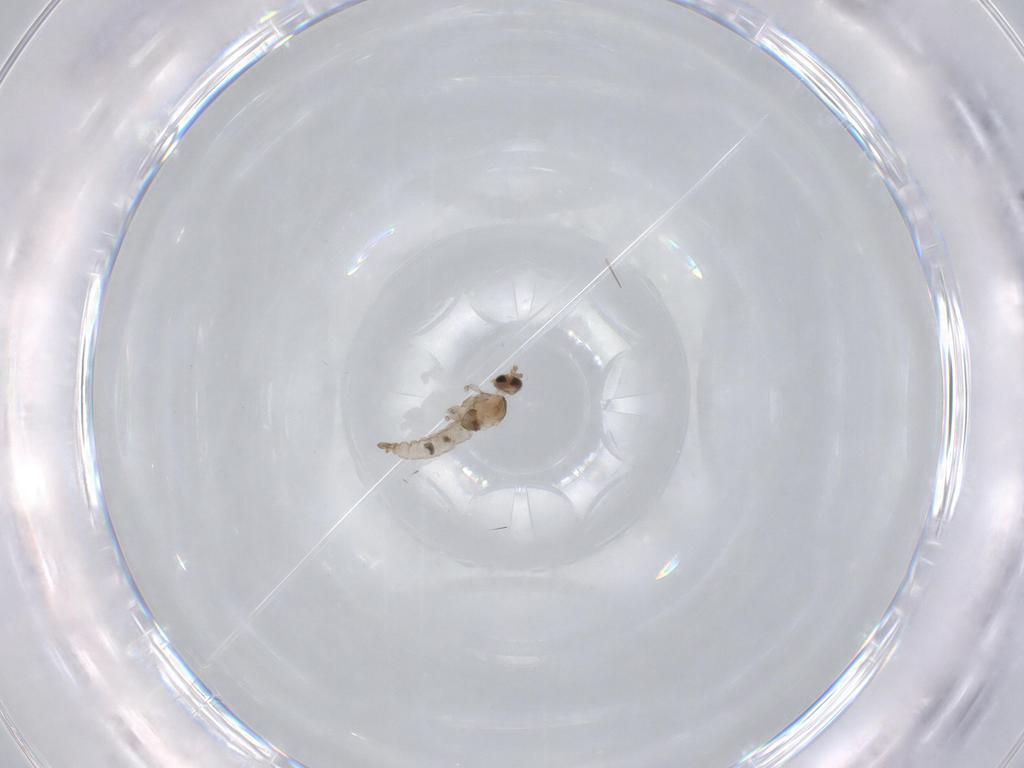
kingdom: Animalia
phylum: Arthropoda
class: Insecta
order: Diptera
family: Cecidomyiidae
